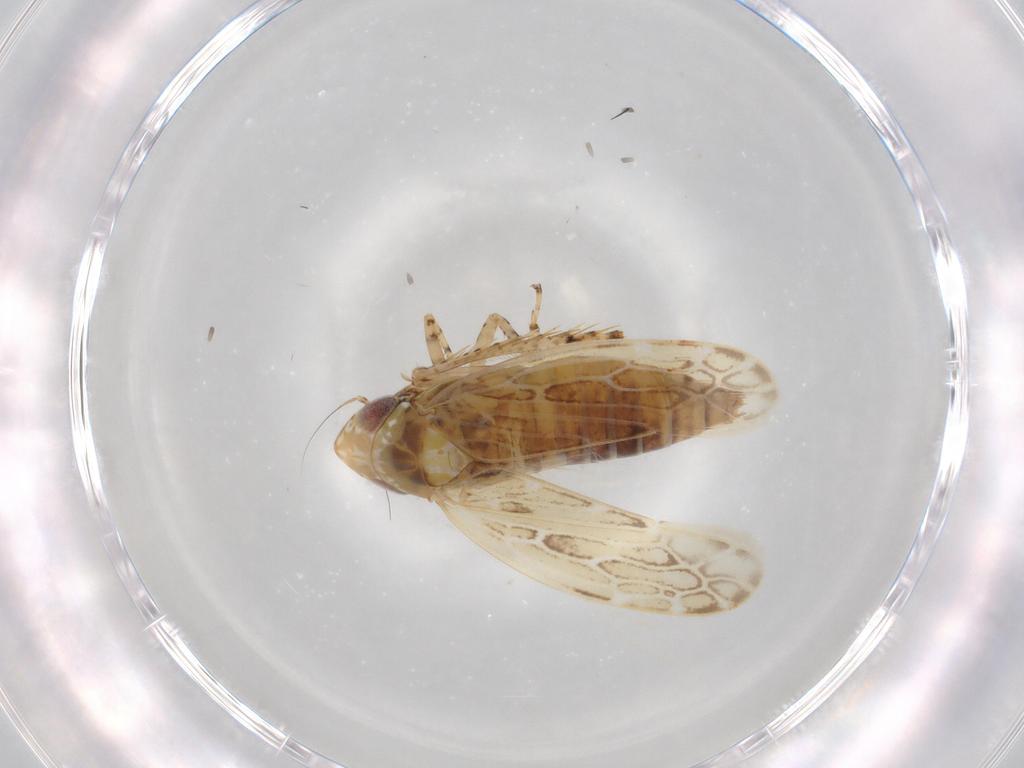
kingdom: Animalia
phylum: Arthropoda
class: Insecta
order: Hemiptera
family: Cicadellidae
